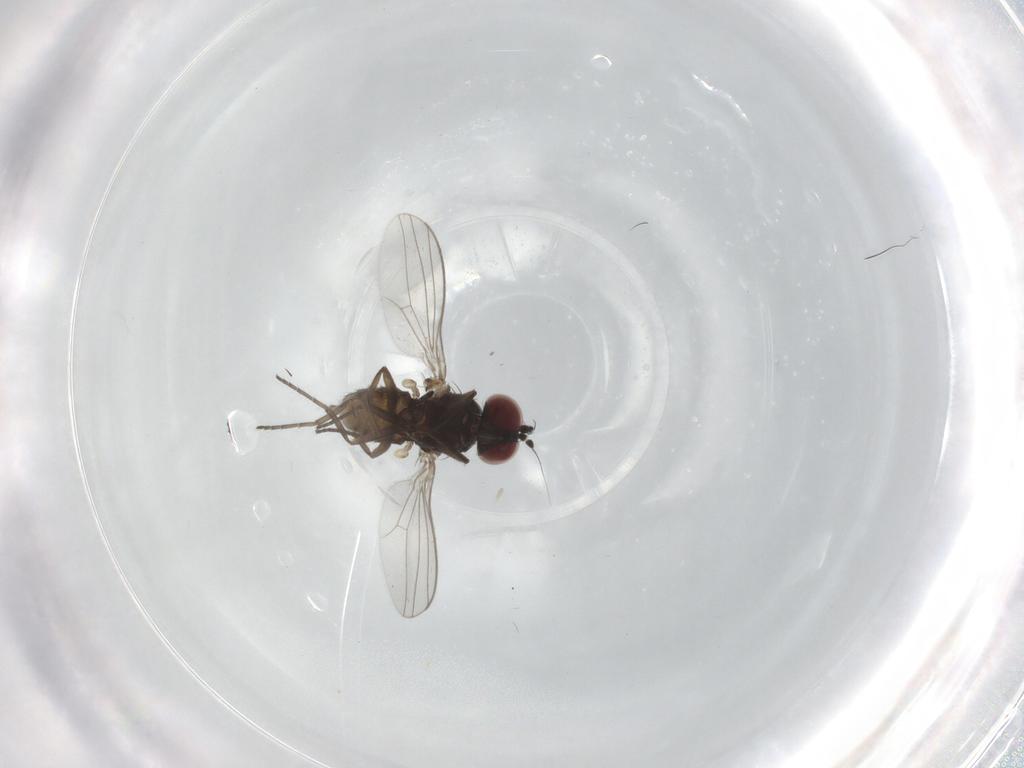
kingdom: Animalia
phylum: Arthropoda
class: Insecta
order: Diptera
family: Dolichopodidae
